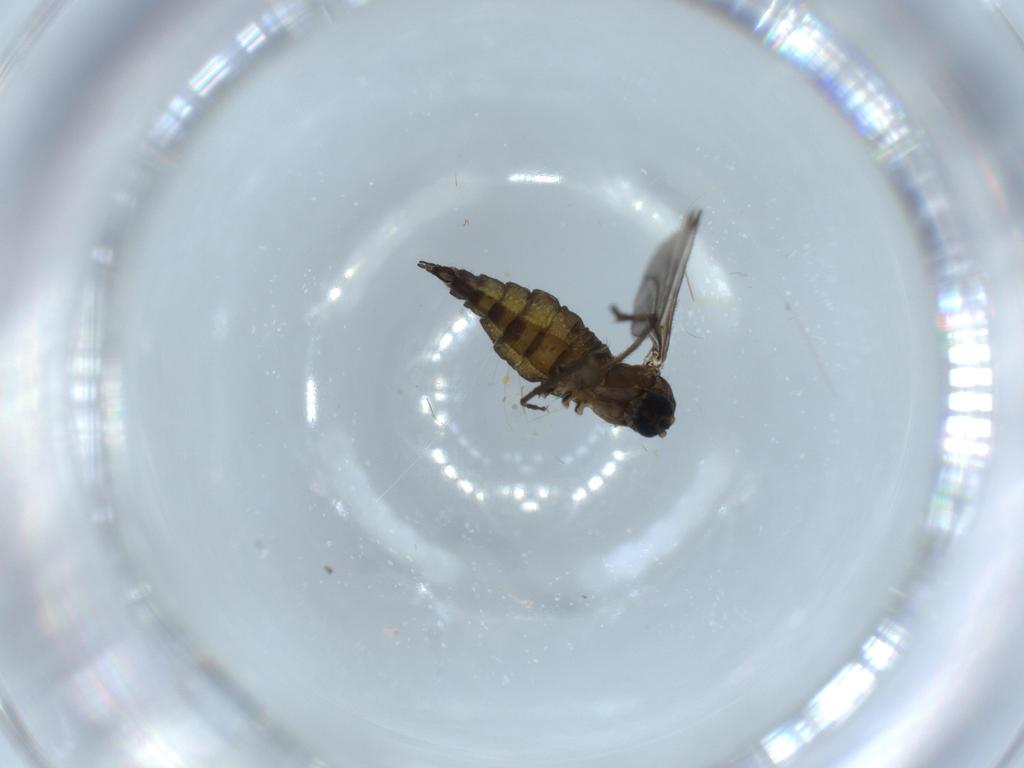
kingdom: Animalia
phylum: Arthropoda
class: Insecta
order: Diptera
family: Sciaridae
